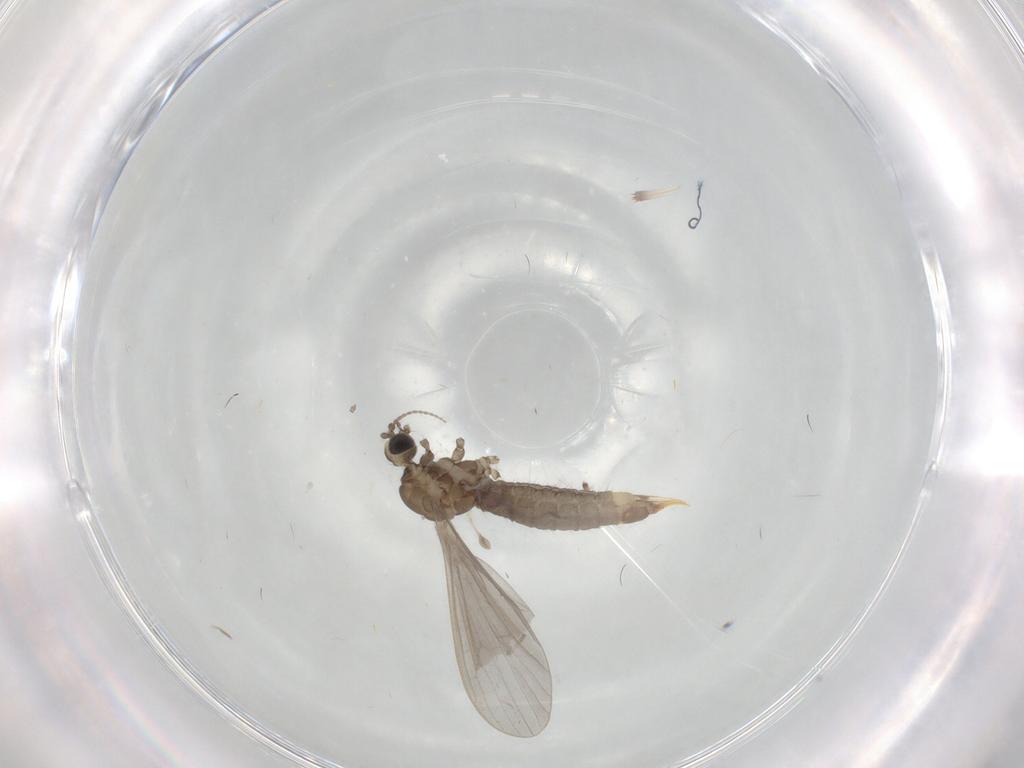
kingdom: Animalia
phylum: Arthropoda
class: Insecta
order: Diptera
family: Limoniidae
